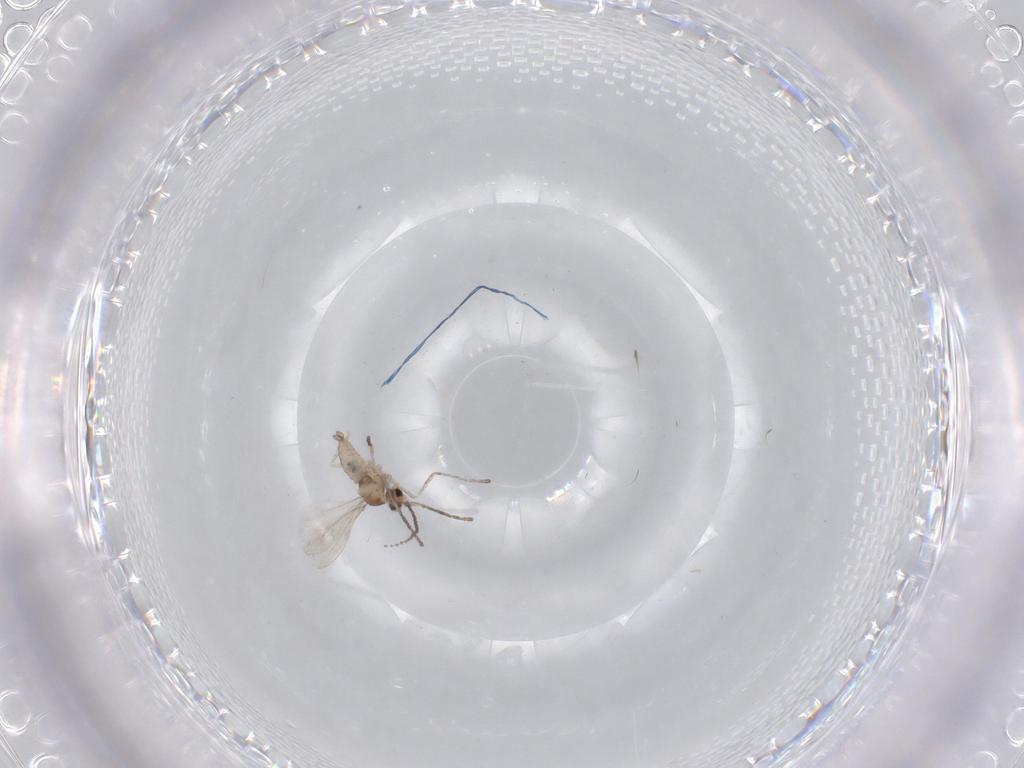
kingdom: Animalia
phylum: Arthropoda
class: Insecta
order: Diptera
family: Cecidomyiidae
